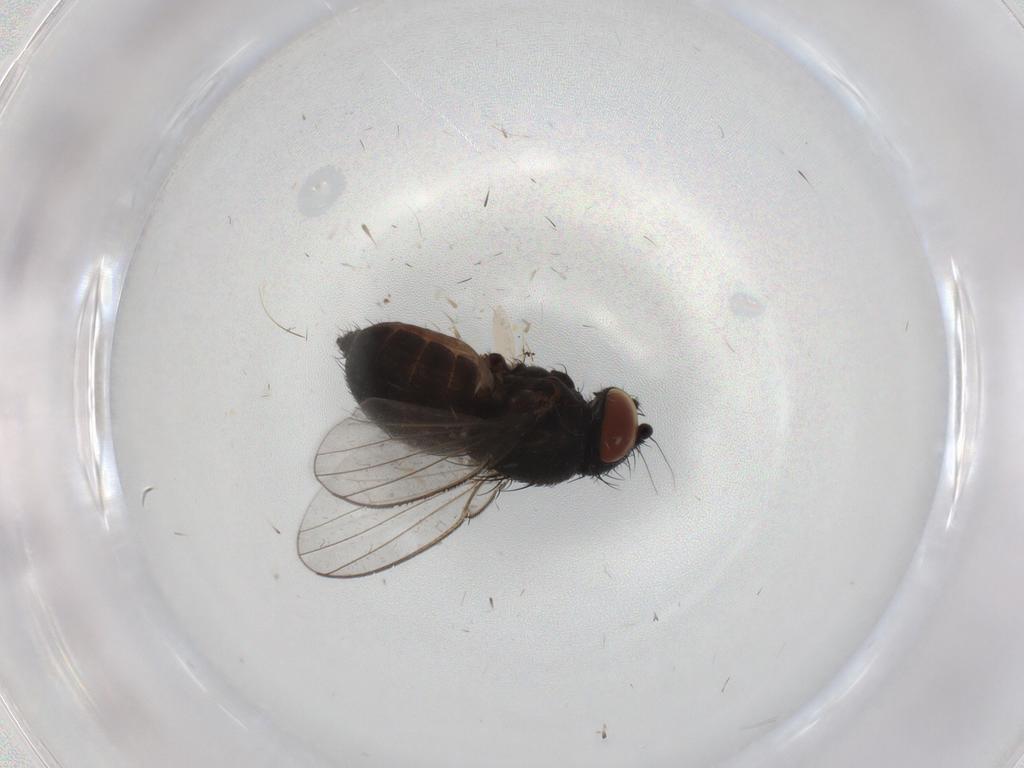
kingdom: Animalia
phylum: Arthropoda
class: Insecta
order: Diptera
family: Milichiidae
